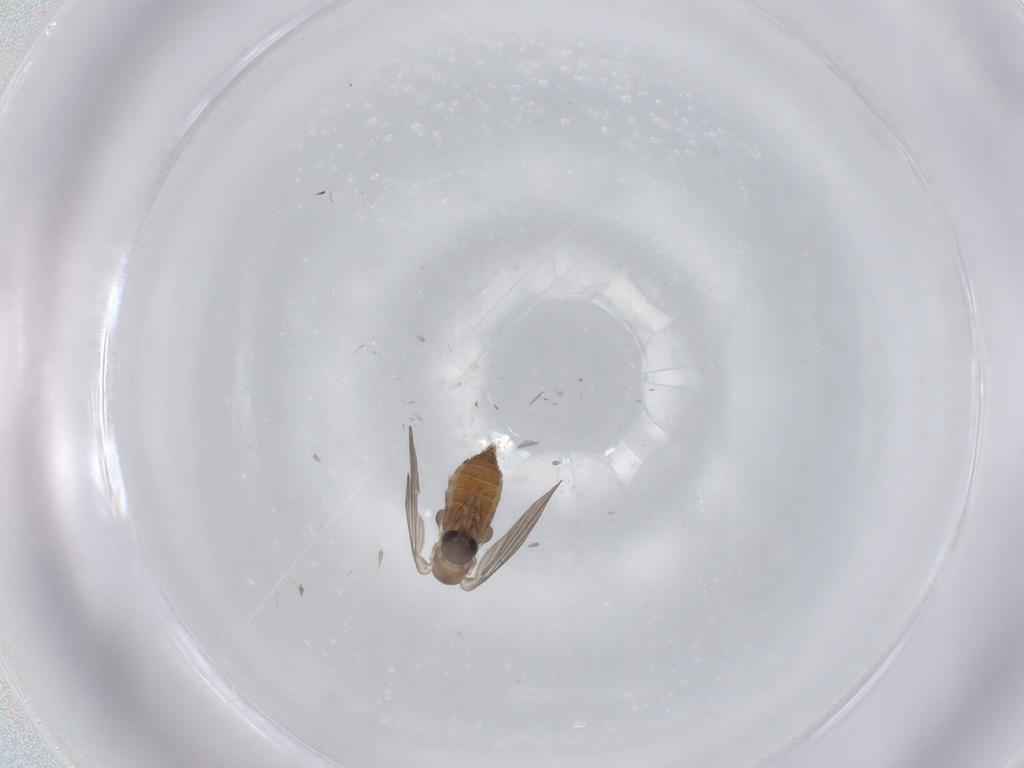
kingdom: Animalia
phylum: Arthropoda
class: Insecta
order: Diptera
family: Cecidomyiidae
